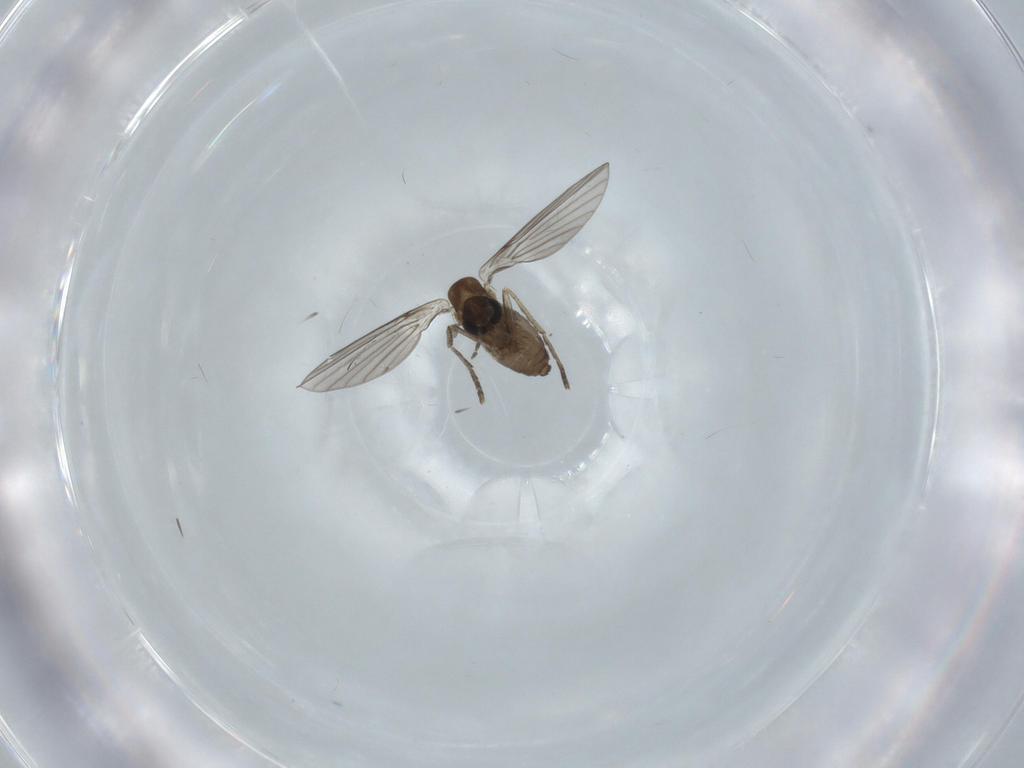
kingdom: Animalia
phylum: Arthropoda
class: Insecta
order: Diptera
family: Psychodidae
